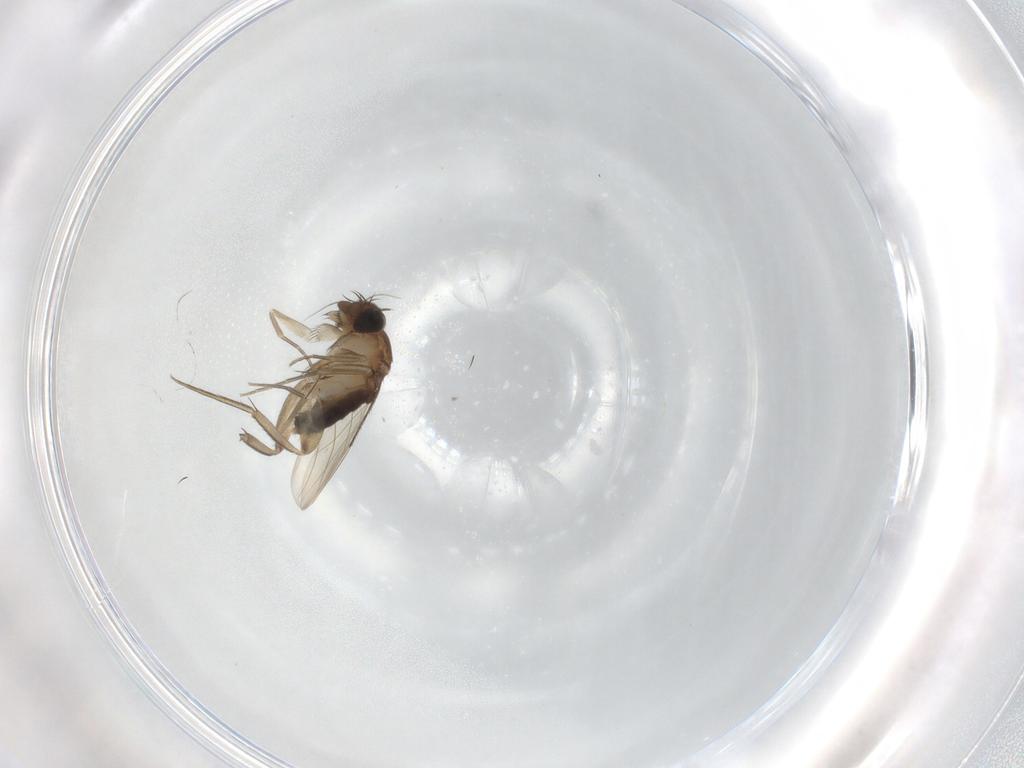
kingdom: Animalia
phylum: Arthropoda
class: Insecta
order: Diptera
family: Phoridae
